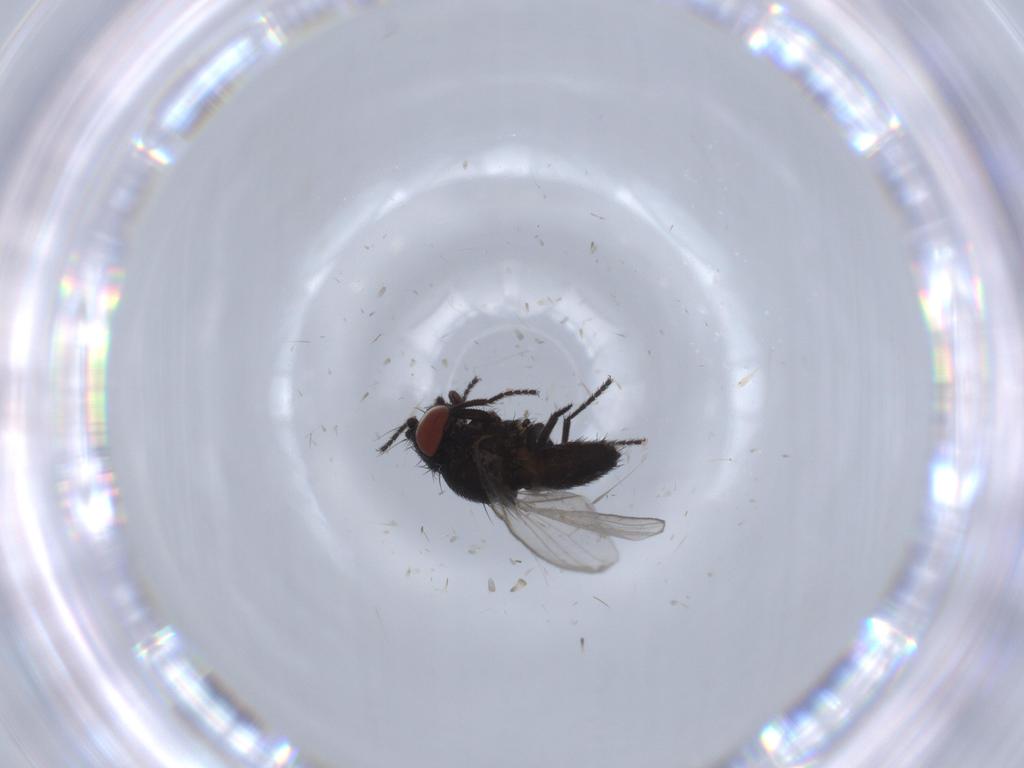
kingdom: Animalia
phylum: Arthropoda
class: Insecta
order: Diptera
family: Milichiidae
